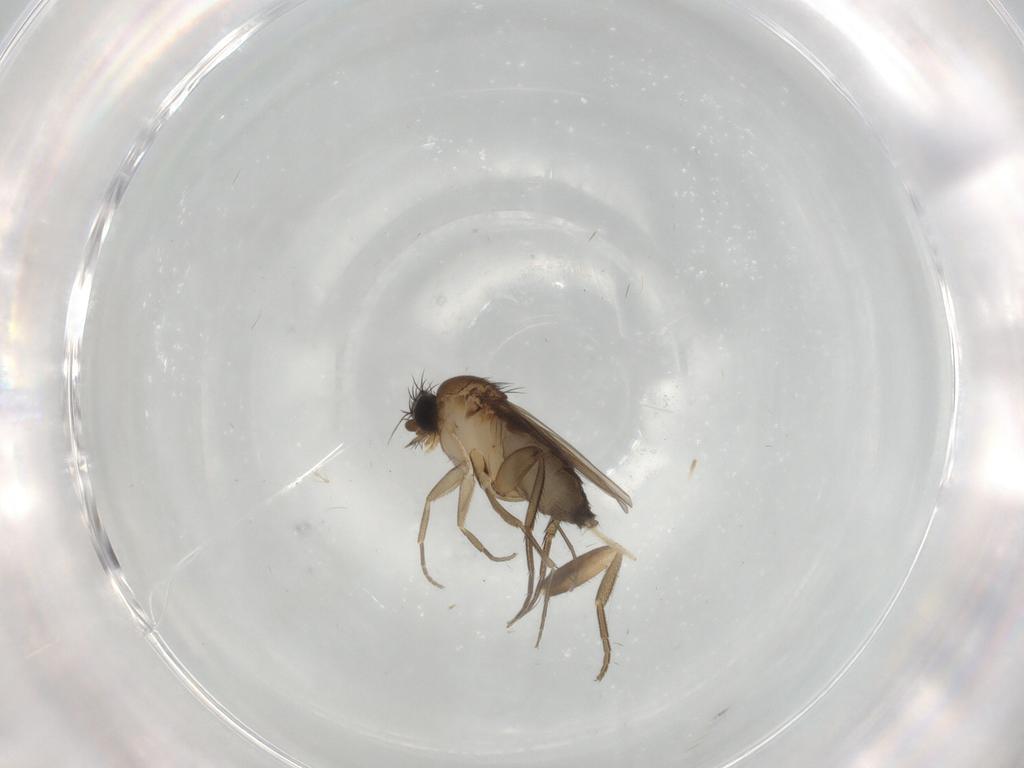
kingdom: Animalia
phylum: Arthropoda
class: Insecta
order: Diptera
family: Phoridae
